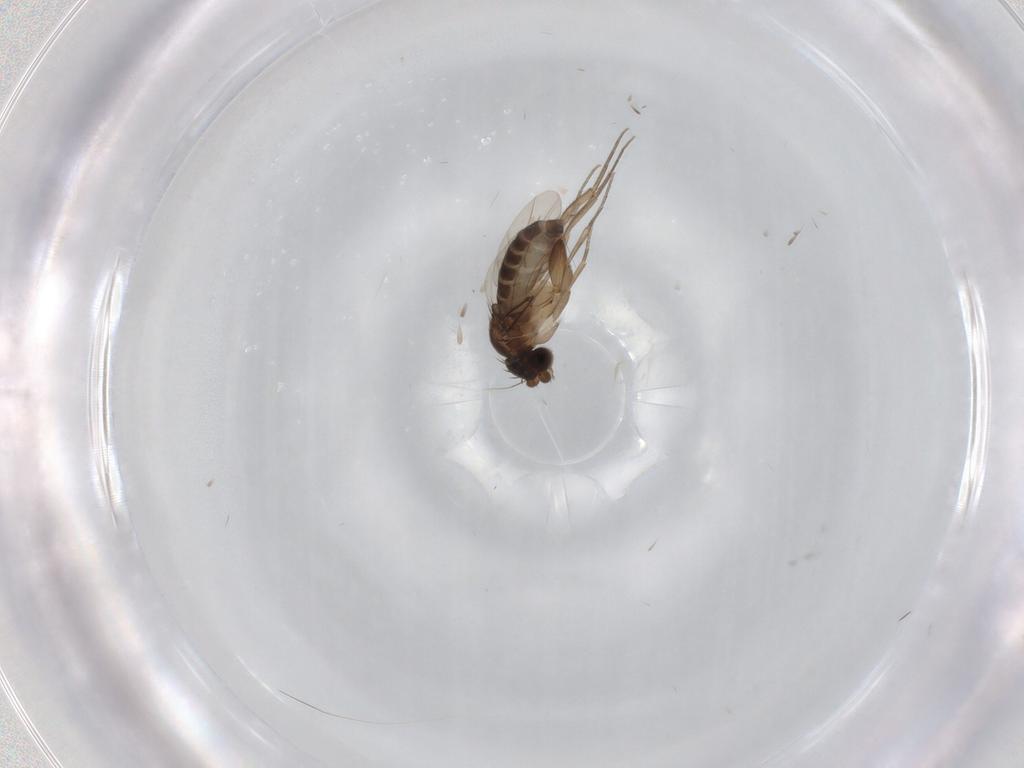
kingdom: Animalia
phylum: Arthropoda
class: Insecta
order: Diptera
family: Phoridae
